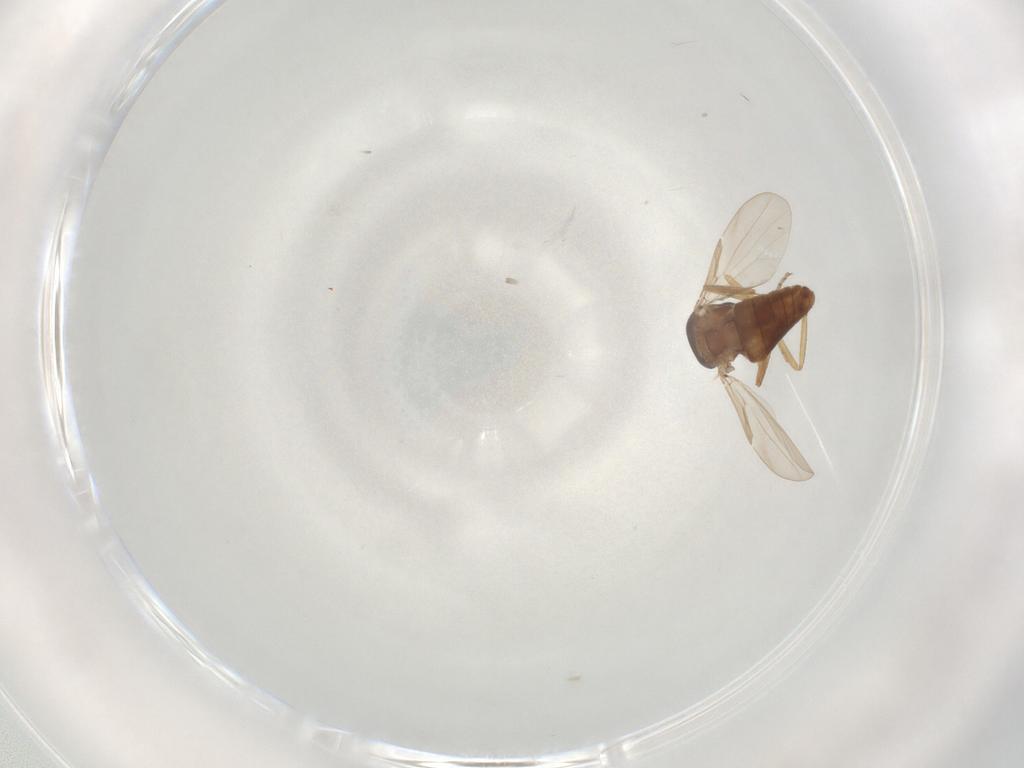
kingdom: Animalia
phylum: Arthropoda
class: Insecta
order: Diptera
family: Ceratopogonidae
